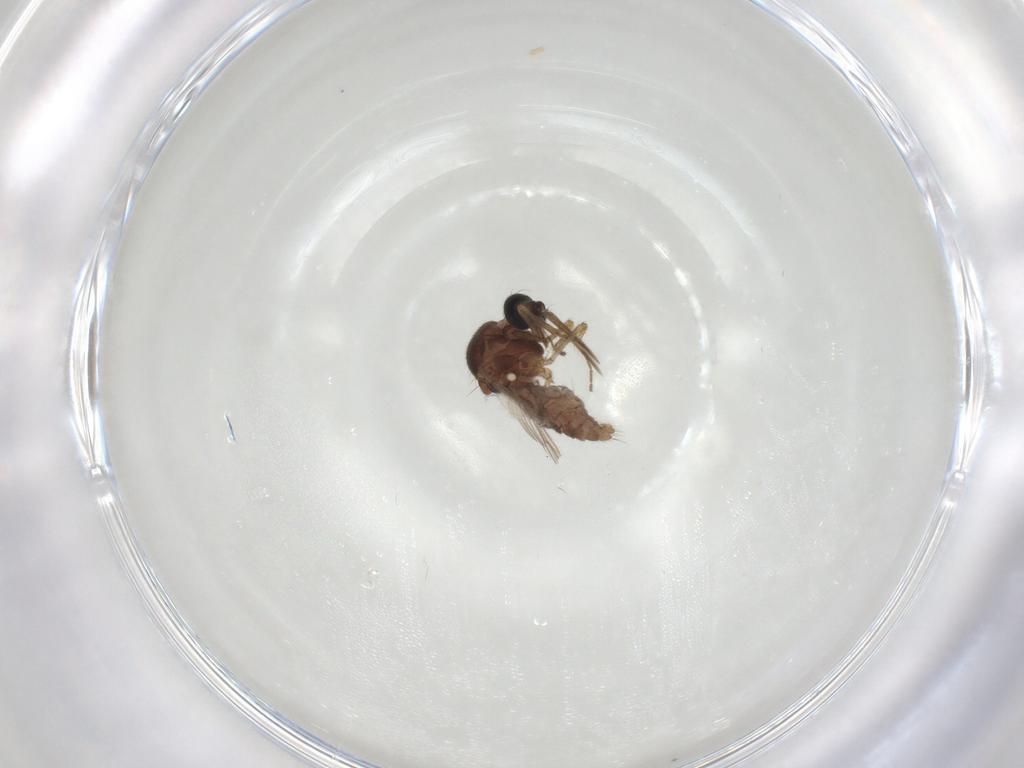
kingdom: Animalia
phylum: Arthropoda
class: Insecta
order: Diptera
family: Ceratopogonidae
